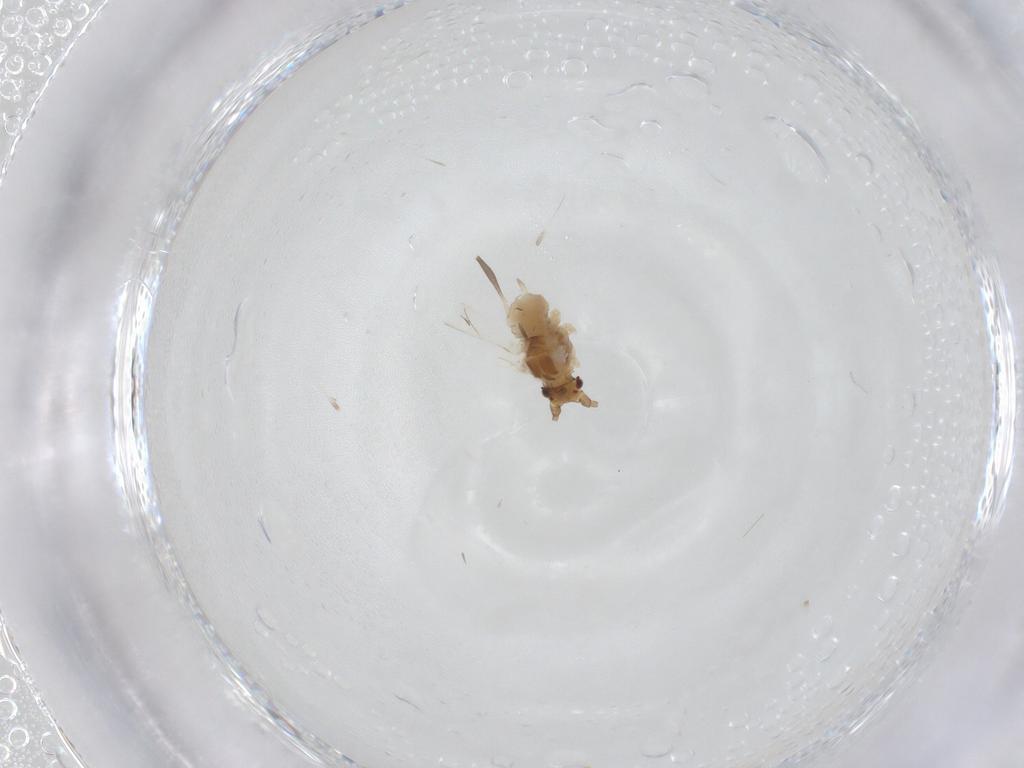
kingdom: Animalia
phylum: Arthropoda
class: Insecta
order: Hemiptera
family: Aphididae
